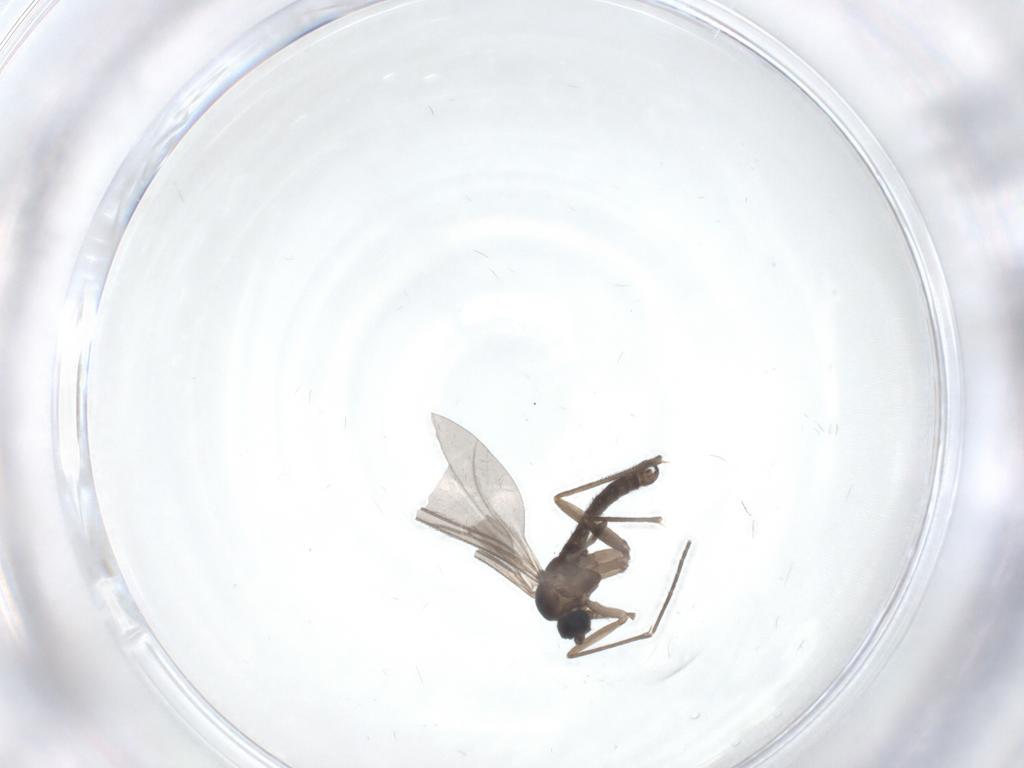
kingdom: Animalia
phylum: Arthropoda
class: Insecta
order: Diptera
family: Sciaridae
